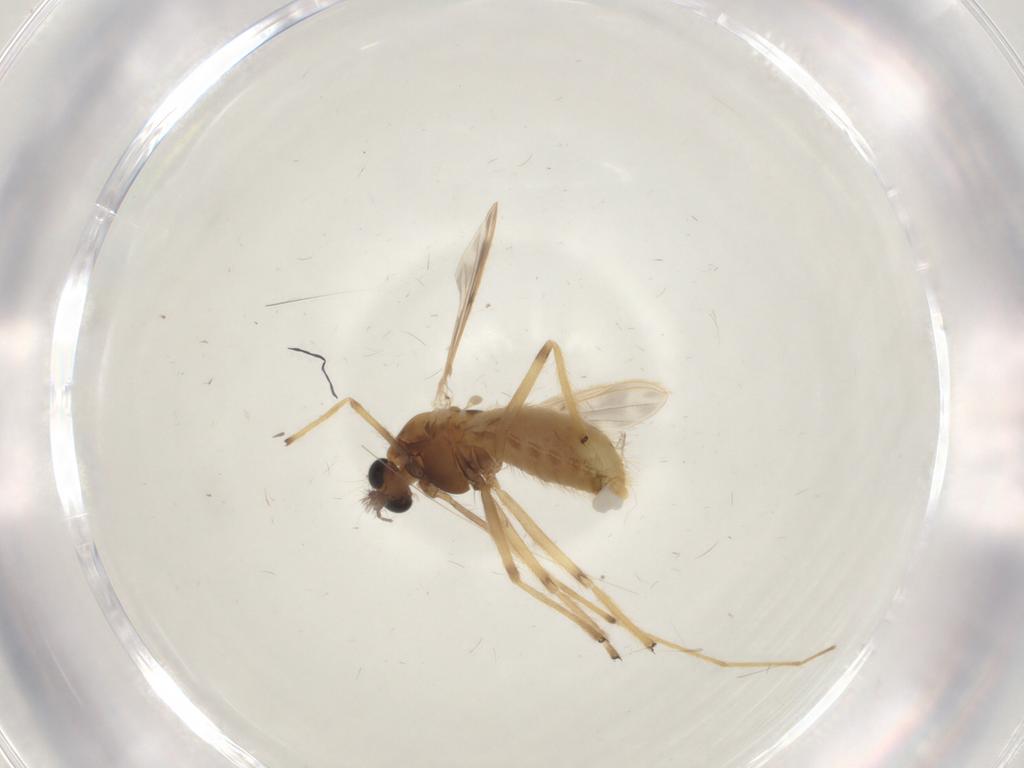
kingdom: Animalia
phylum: Arthropoda
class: Insecta
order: Diptera
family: Chironomidae
